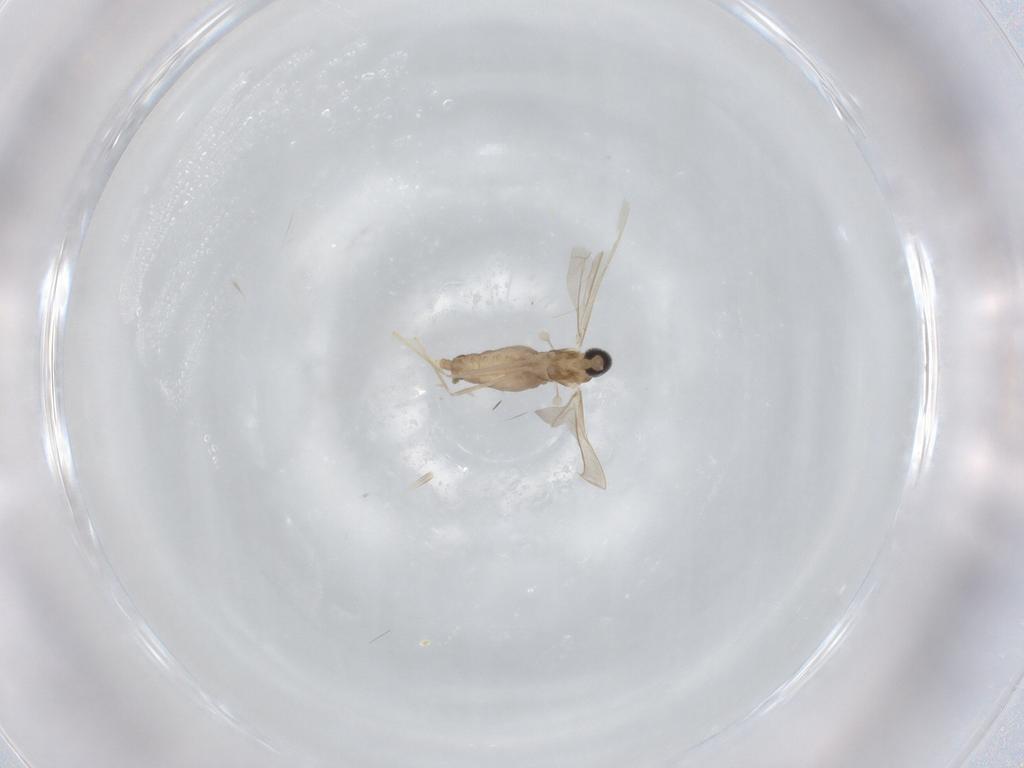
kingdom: Animalia
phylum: Arthropoda
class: Insecta
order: Diptera
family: Cecidomyiidae
